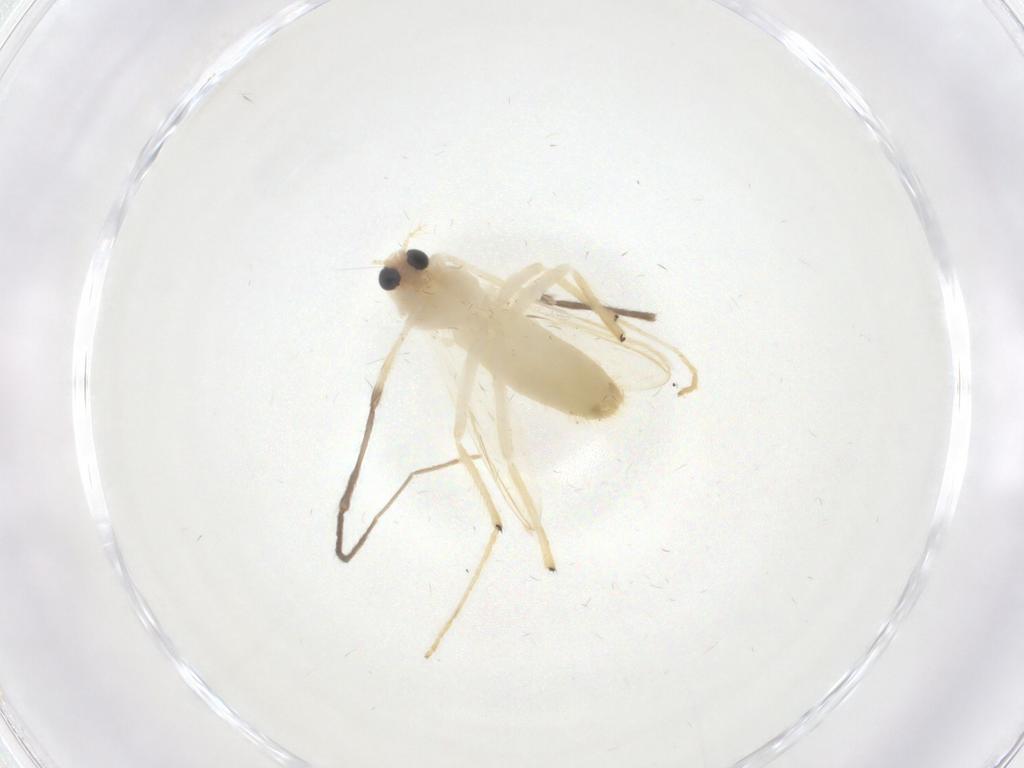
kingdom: Animalia
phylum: Arthropoda
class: Insecta
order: Diptera
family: Chironomidae
